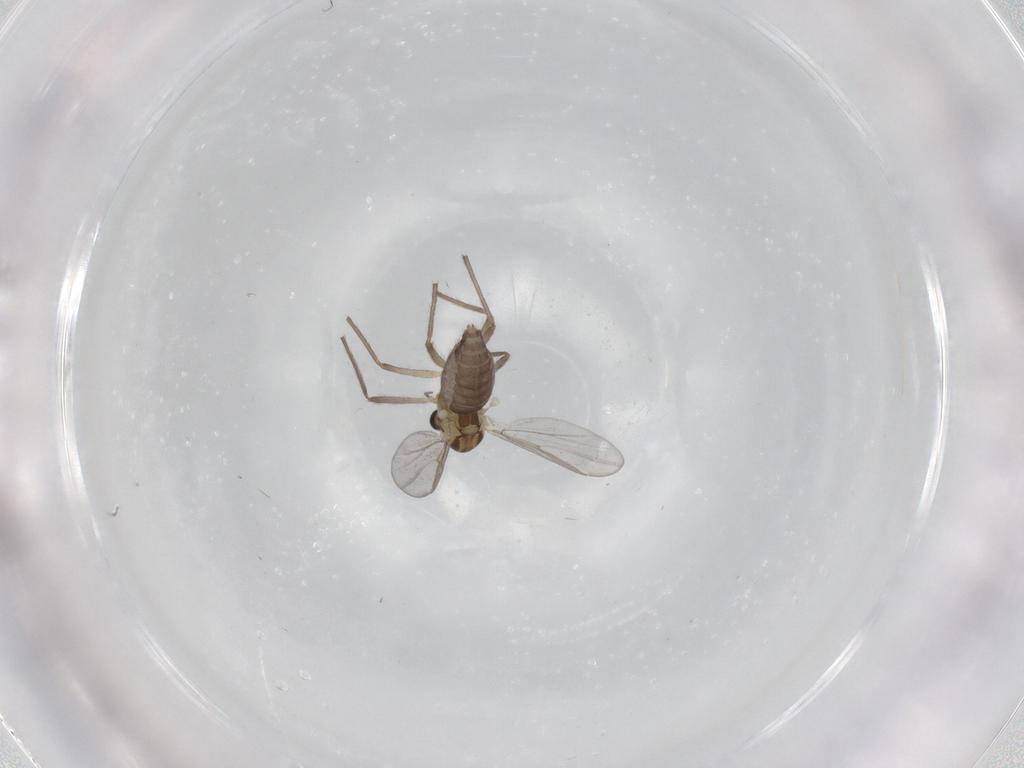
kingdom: Animalia
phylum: Arthropoda
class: Insecta
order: Diptera
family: Chironomidae
